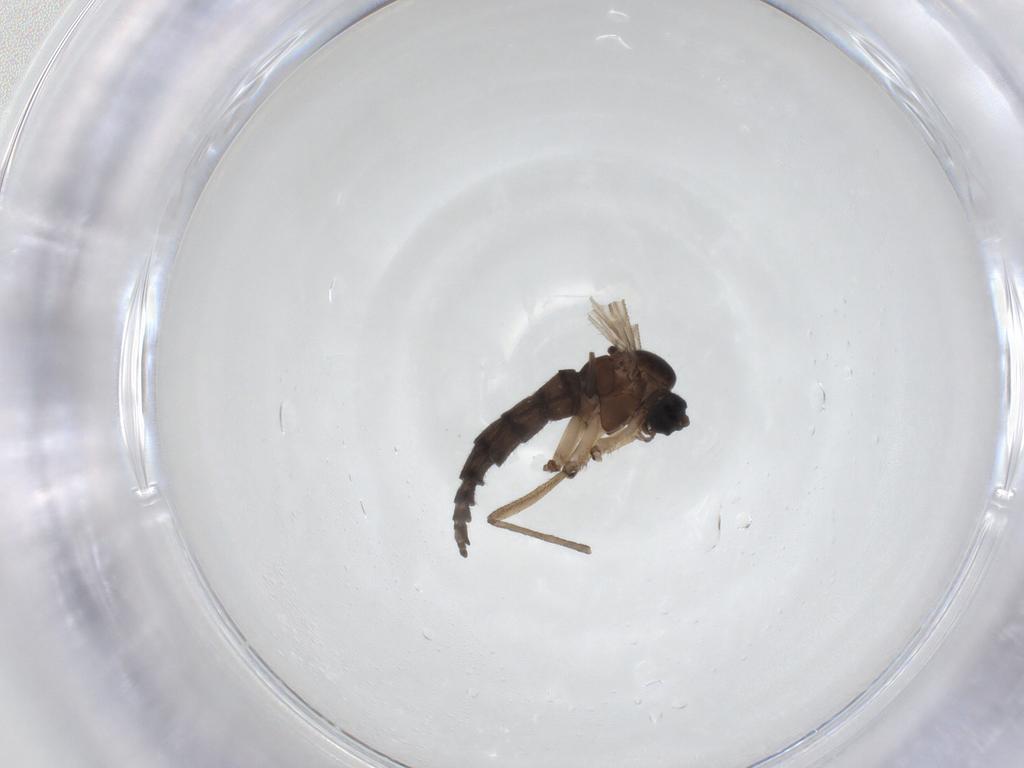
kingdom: Animalia
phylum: Arthropoda
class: Insecta
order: Diptera
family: Sciaridae
